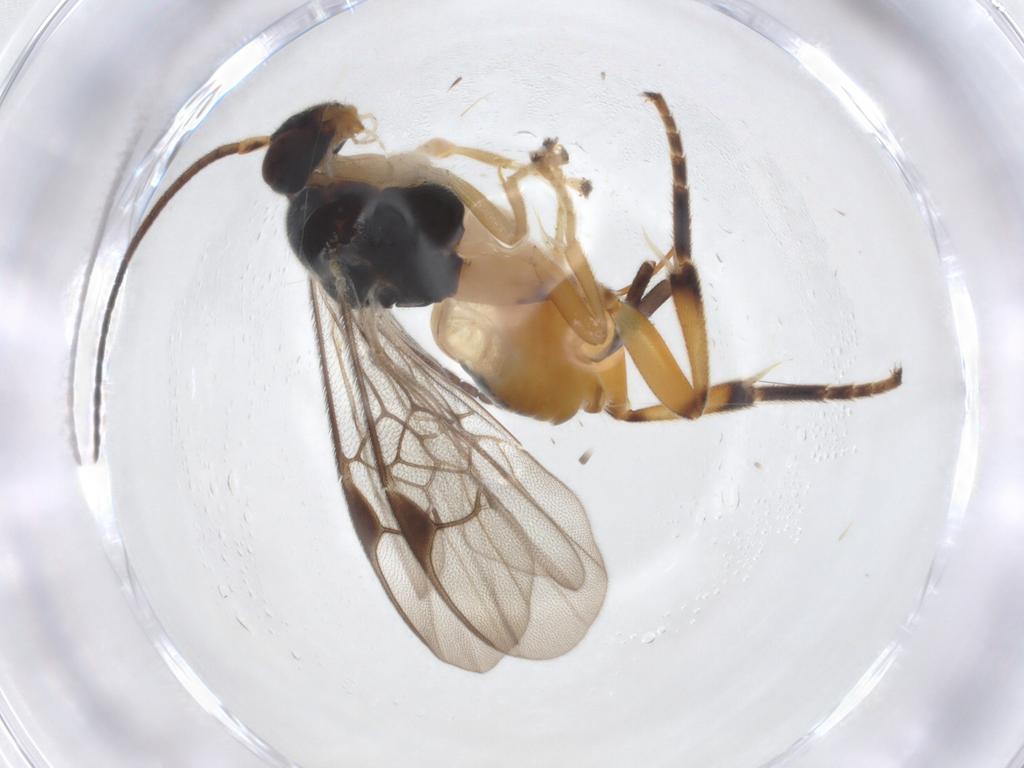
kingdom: Animalia
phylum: Arthropoda
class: Insecta
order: Hymenoptera
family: Braconidae
